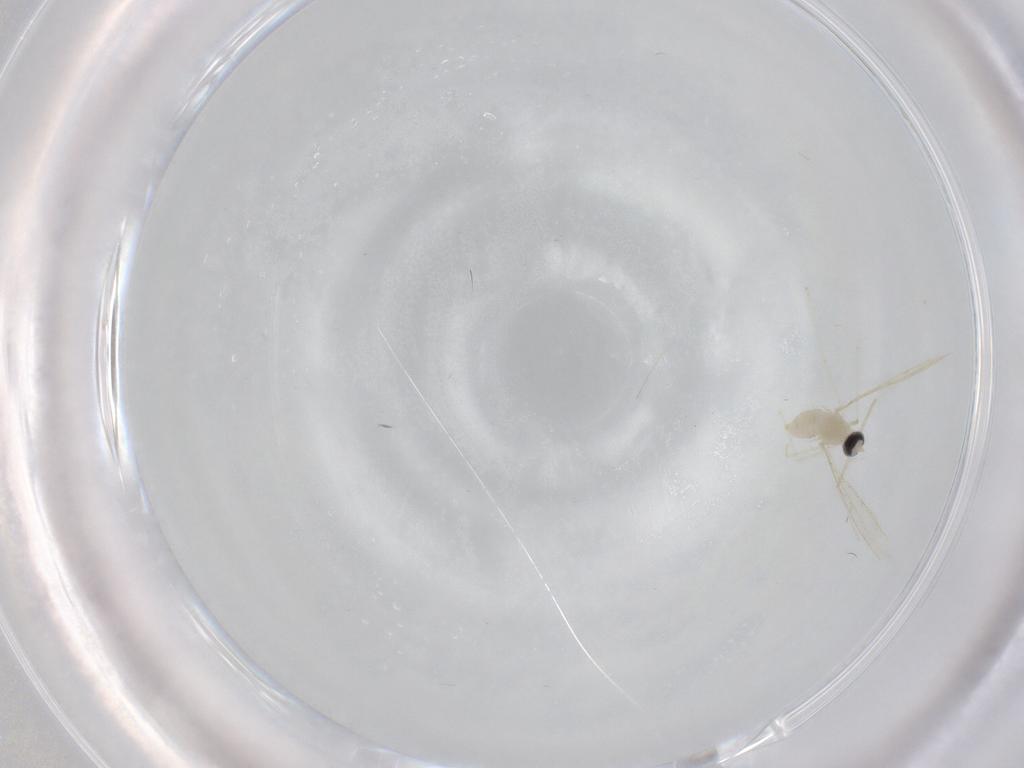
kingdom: Animalia
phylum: Arthropoda
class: Insecta
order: Diptera
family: Cecidomyiidae
